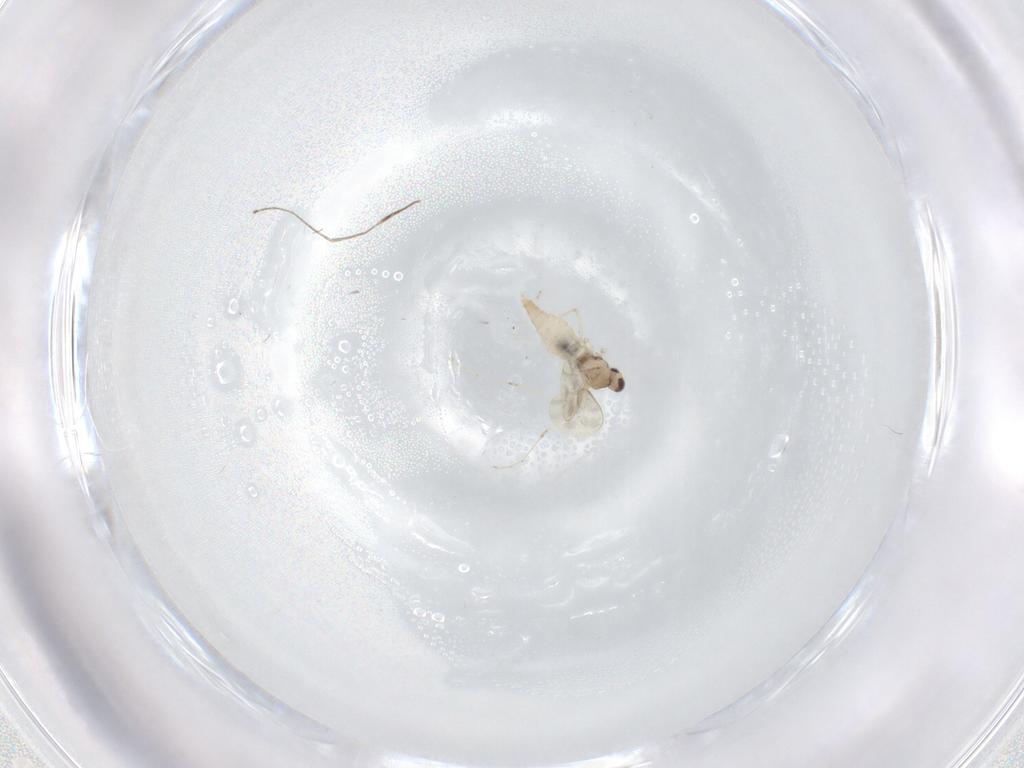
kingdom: Animalia
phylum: Arthropoda
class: Insecta
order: Diptera
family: Cecidomyiidae
